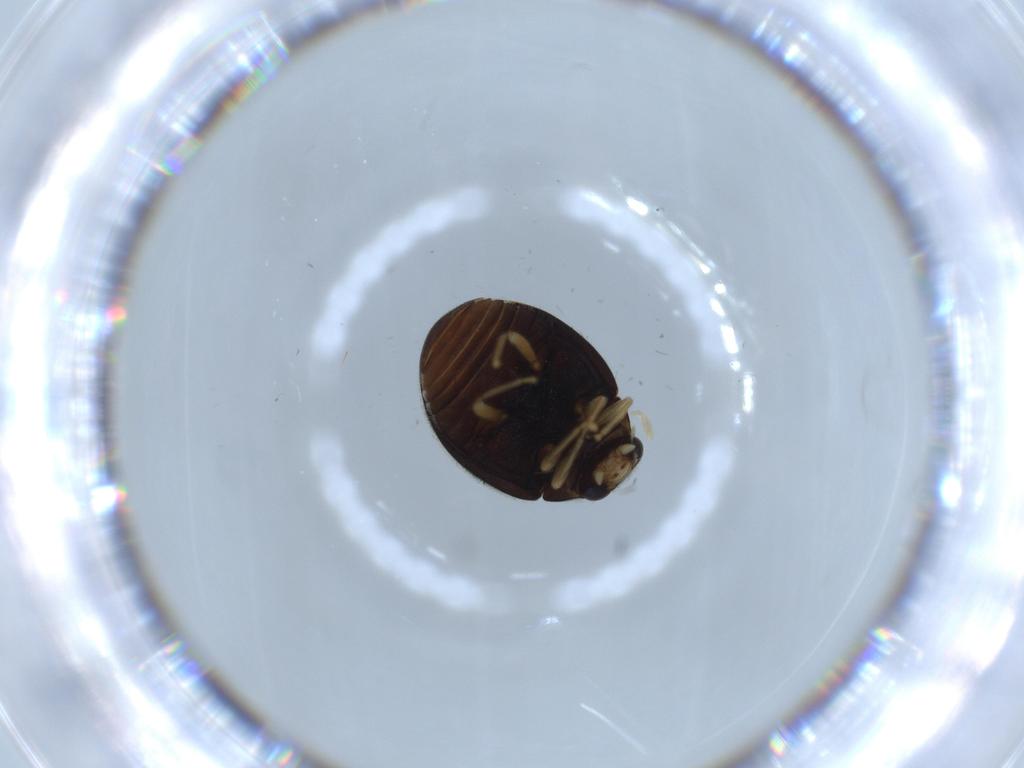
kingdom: Animalia
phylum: Arthropoda
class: Insecta
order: Coleoptera
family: Coccinellidae
